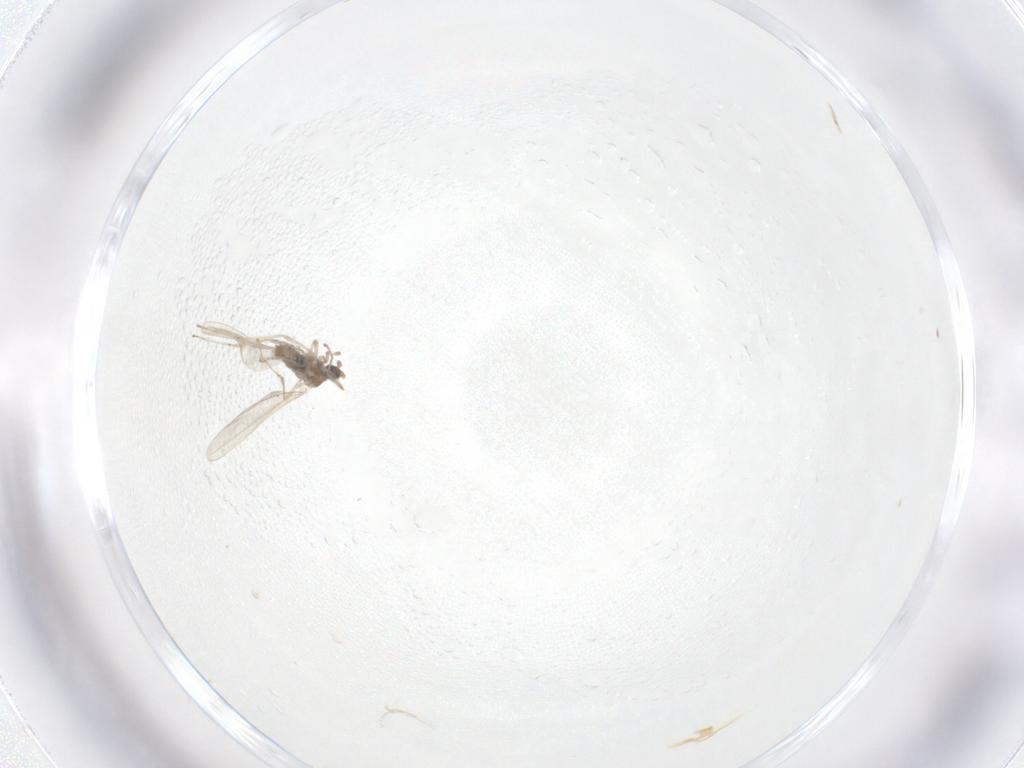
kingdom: Animalia
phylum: Arthropoda
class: Insecta
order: Diptera
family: Cecidomyiidae
